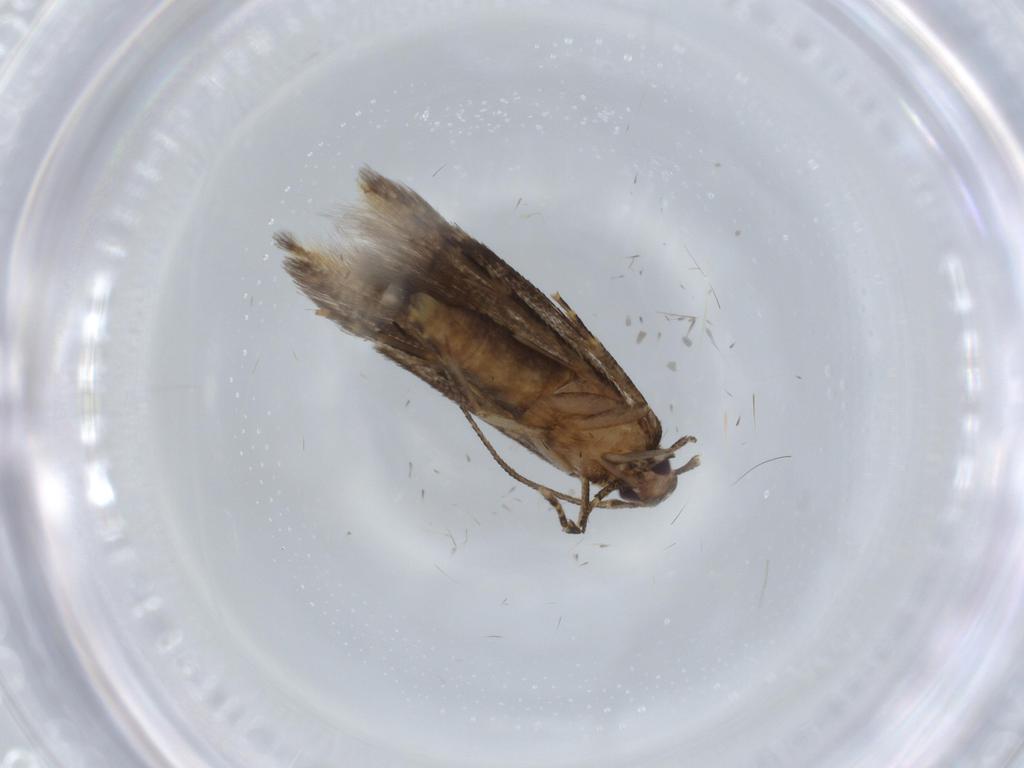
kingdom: Animalia
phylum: Arthropoda
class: Insecta
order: Lepidoptera
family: Stathmopodidae
